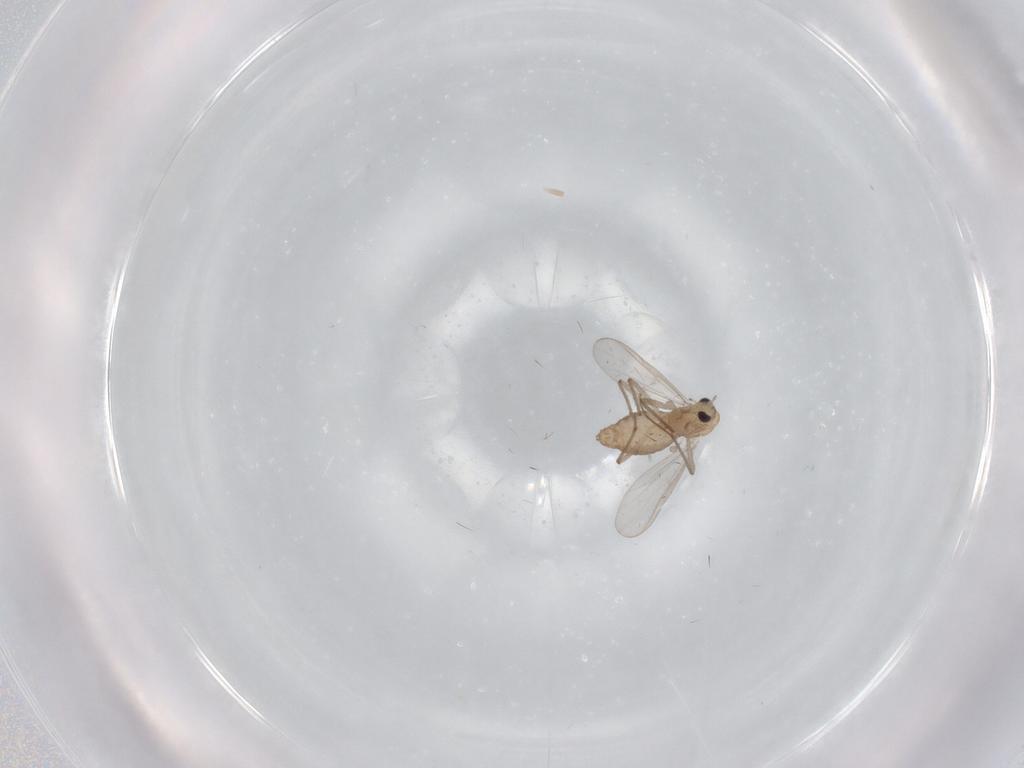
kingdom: Animalia
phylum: Arthropoda
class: Insecta
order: Diptera
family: Chironomidae
